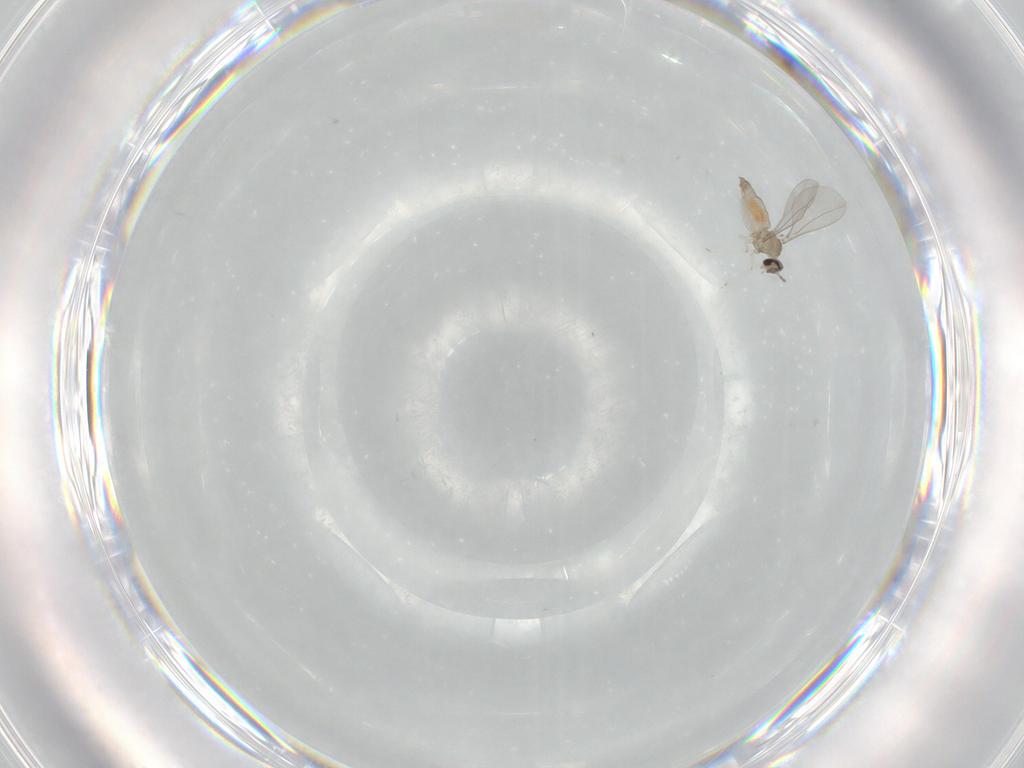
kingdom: Animalia
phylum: Arthropoda
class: Insecta
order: Diptera
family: Cecidomyiidae
